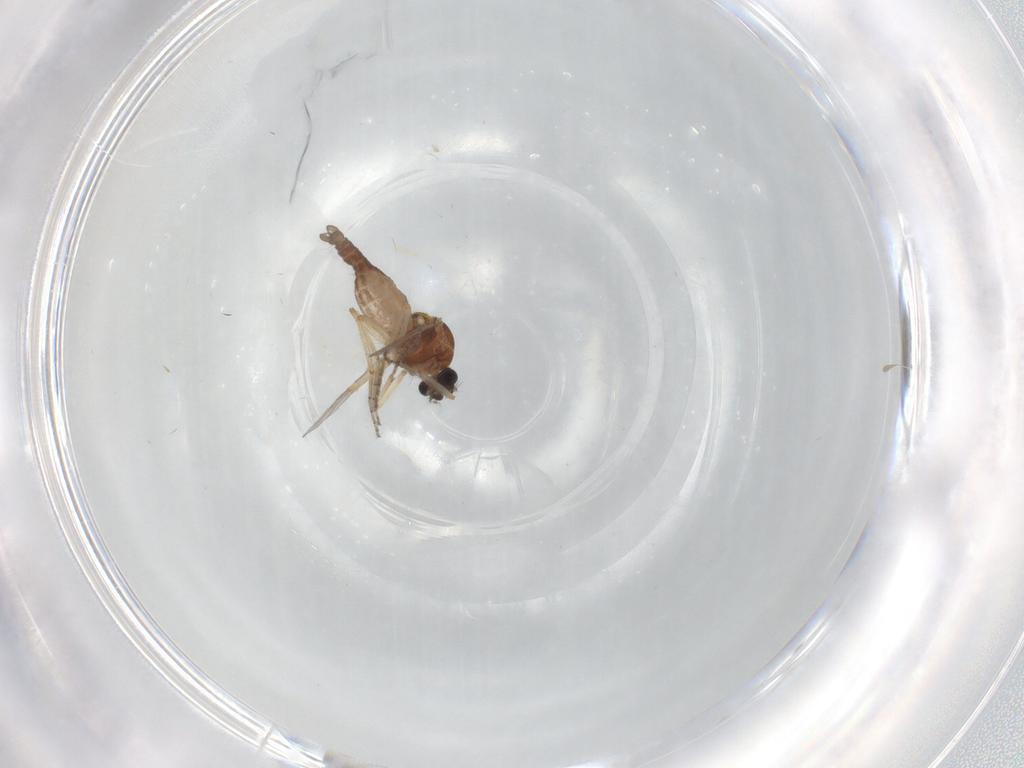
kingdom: Animalia
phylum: Arthropoda
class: Insecta
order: Diptera
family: Ceratopogonidae
